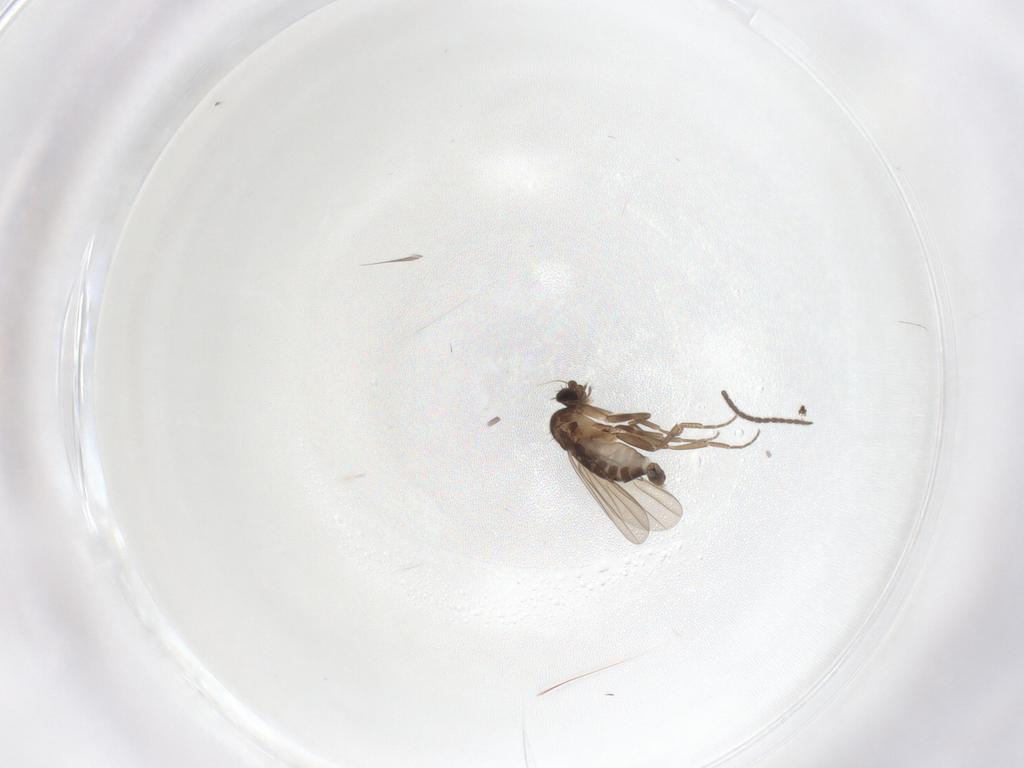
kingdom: Animalia
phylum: Arthropoda
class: Insecta
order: Diptera
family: Phoridae
